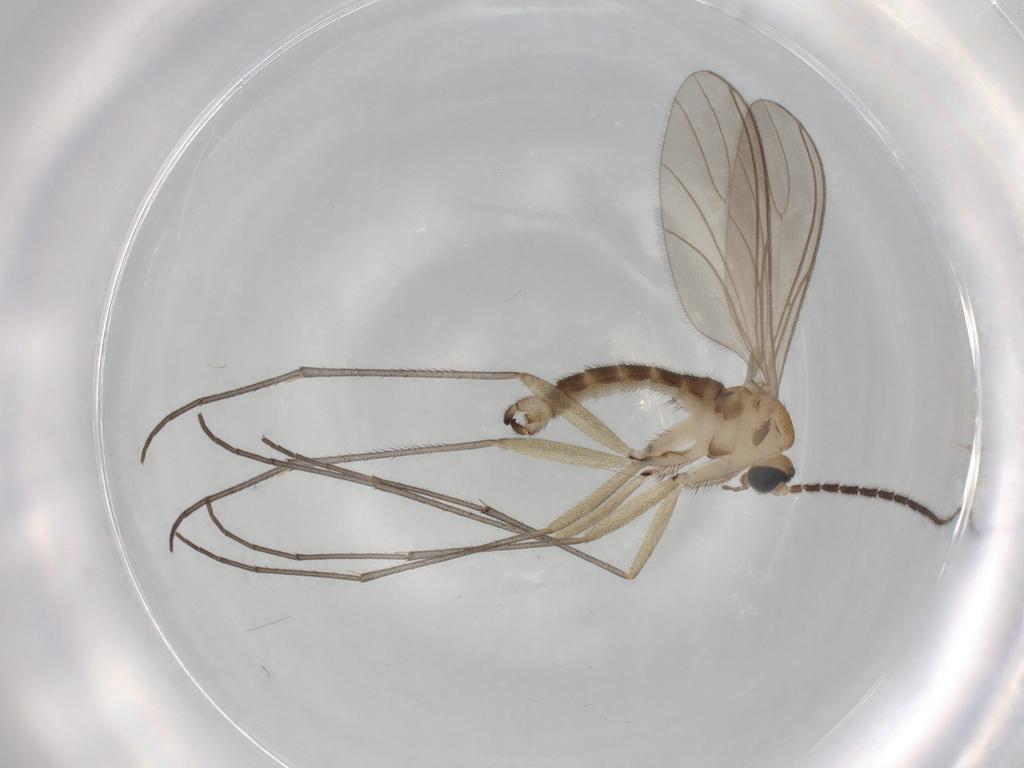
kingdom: Animalia
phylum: Arthropoda
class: Insecta
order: Diptera
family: Sciaridae
